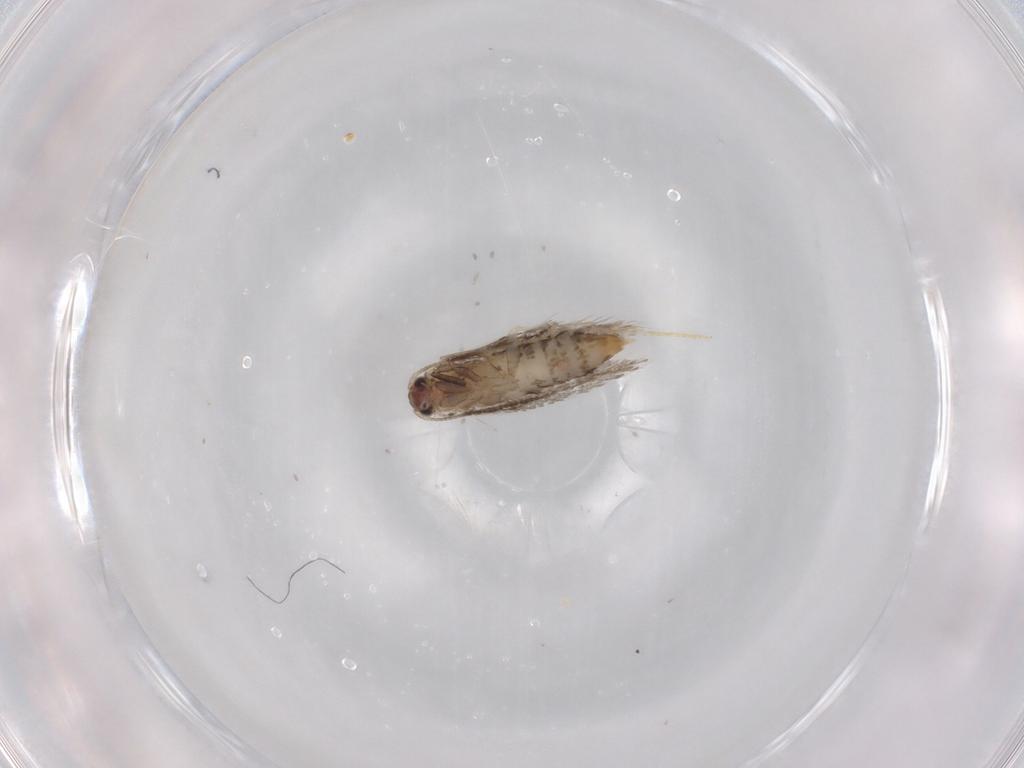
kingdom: Animalia
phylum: Arthropoda
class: Insecta
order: Lepidoptera
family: Tineidae
